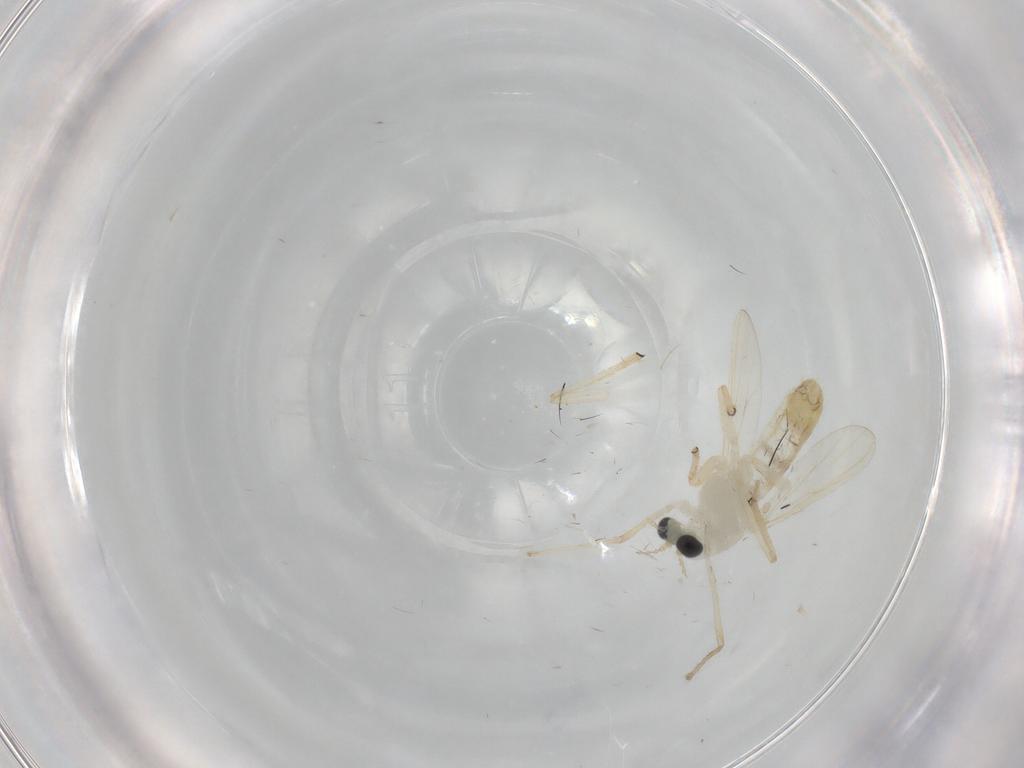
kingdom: Animalia
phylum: Arthropoda
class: Insecta
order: Diptera
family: Chironomidae
